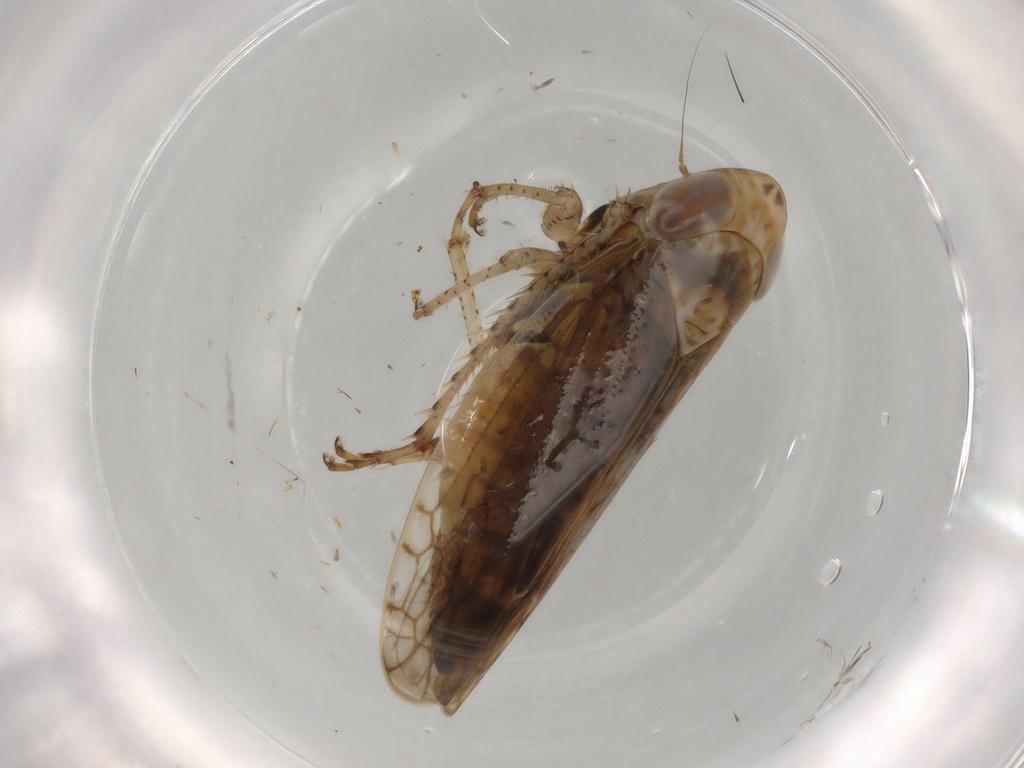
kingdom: Animalia
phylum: Arthropoda
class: Insecta
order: Hemiptera
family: Cicadellidae
